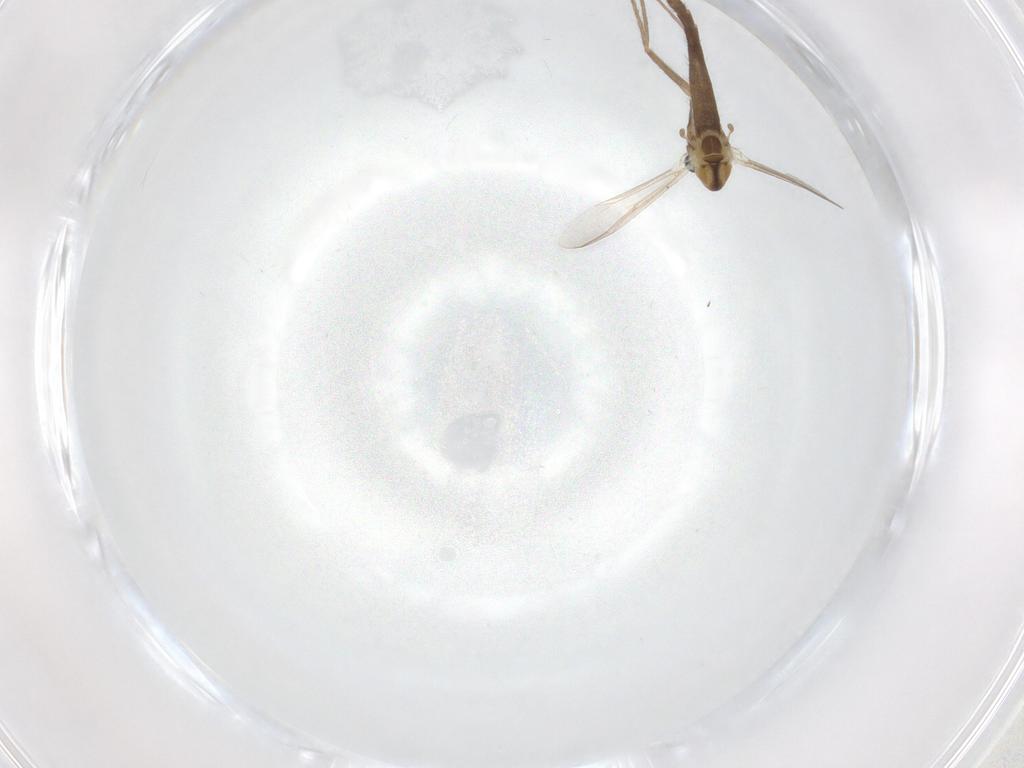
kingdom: Animalia
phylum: Arthropoda
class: Insecta
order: Diptera
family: Chironomidae
